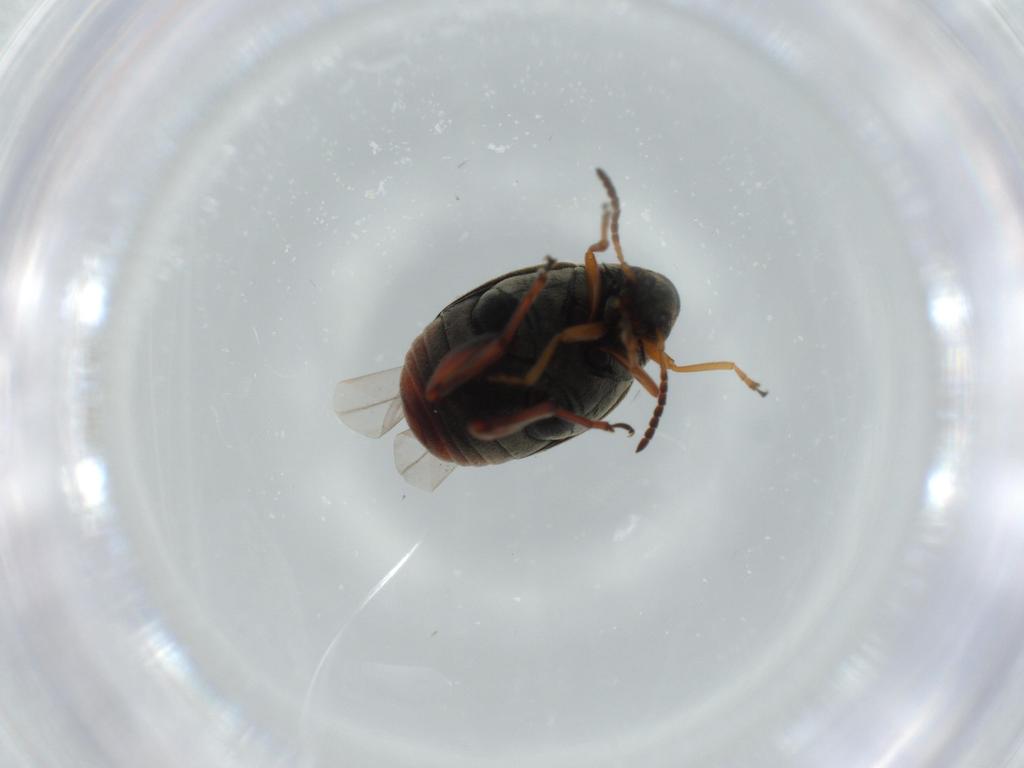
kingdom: Animalia
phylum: Arthropoda
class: Insecta
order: Coleoptera
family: Chrysomelidae
